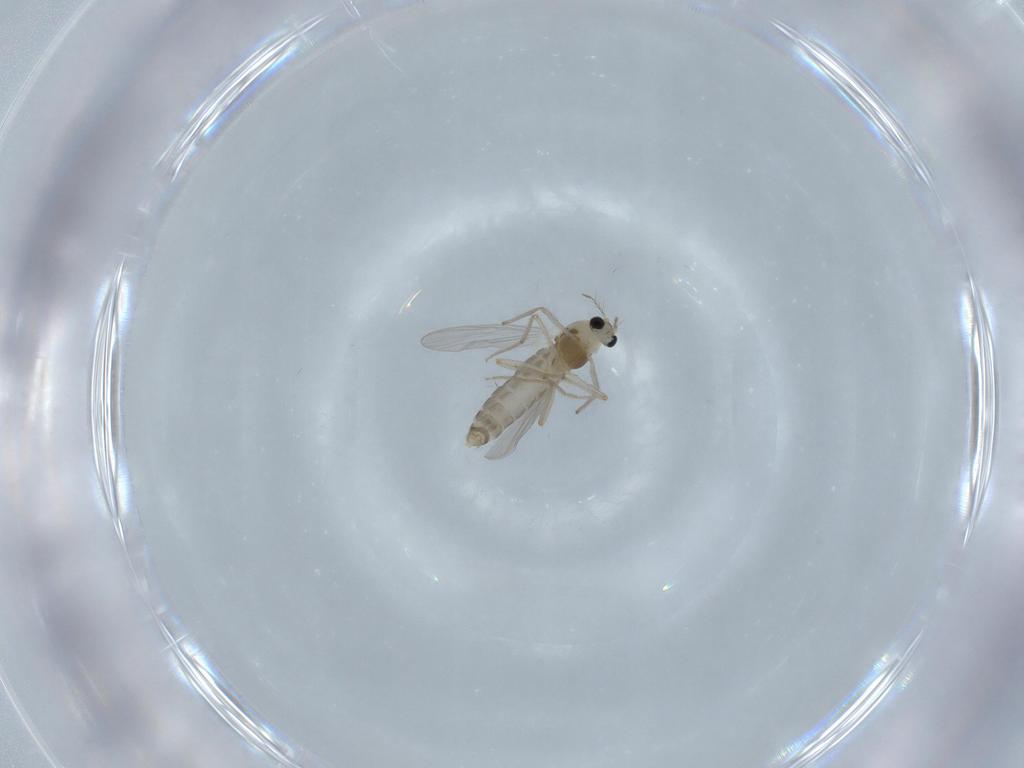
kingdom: Animalia
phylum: Arthropoda
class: Insecta
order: Diptera
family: Chironomidae
